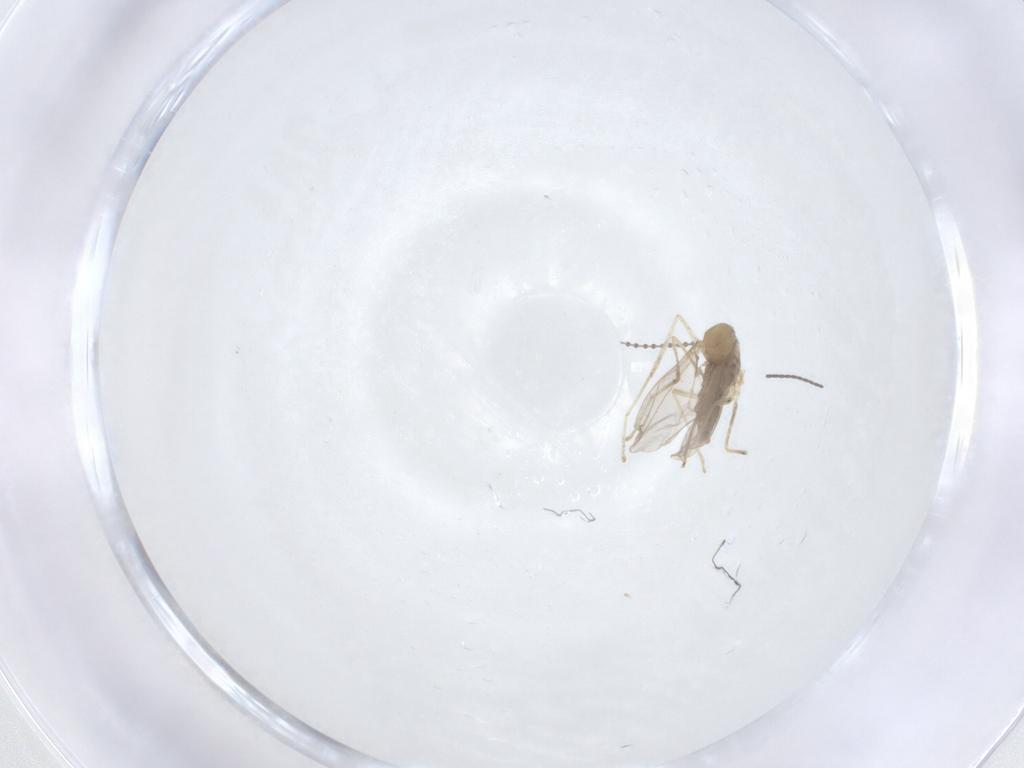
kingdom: Animalia
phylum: Arthropoda
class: Insecta
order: Diptera
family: Cecidomyiidae
